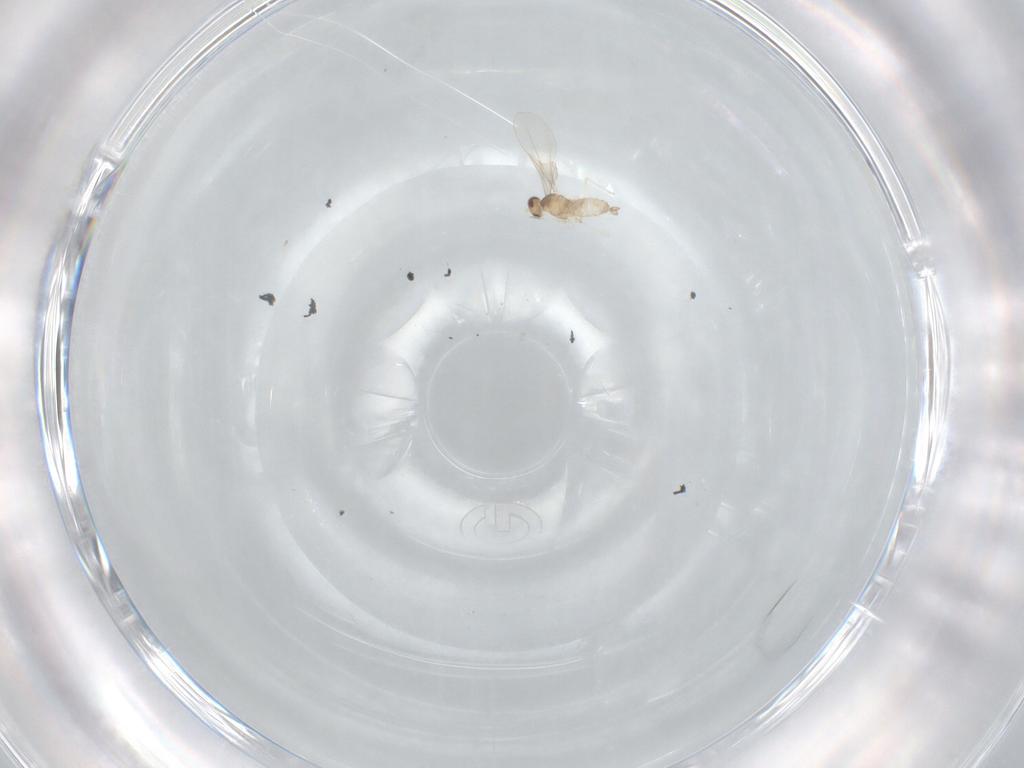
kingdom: Animalia
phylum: Arthropoda
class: Insecta
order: Diptera
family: Cecidomyiidae
